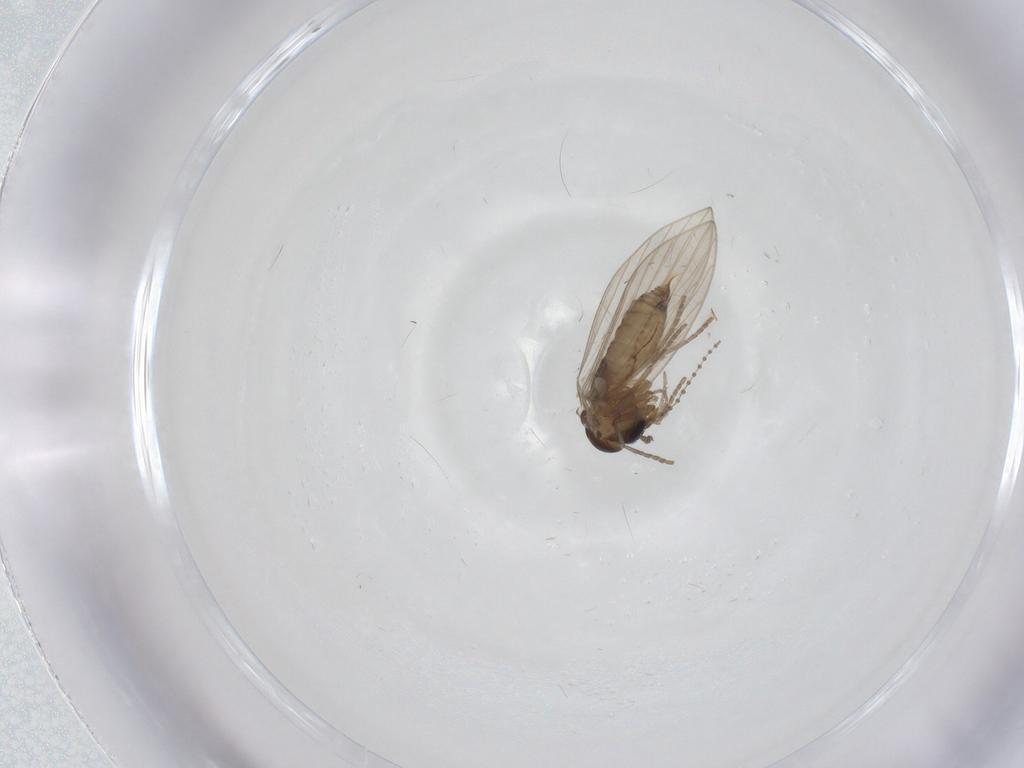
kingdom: Animalia
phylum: Arthropoda
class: Insecta
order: Diptera
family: Psychodidae
